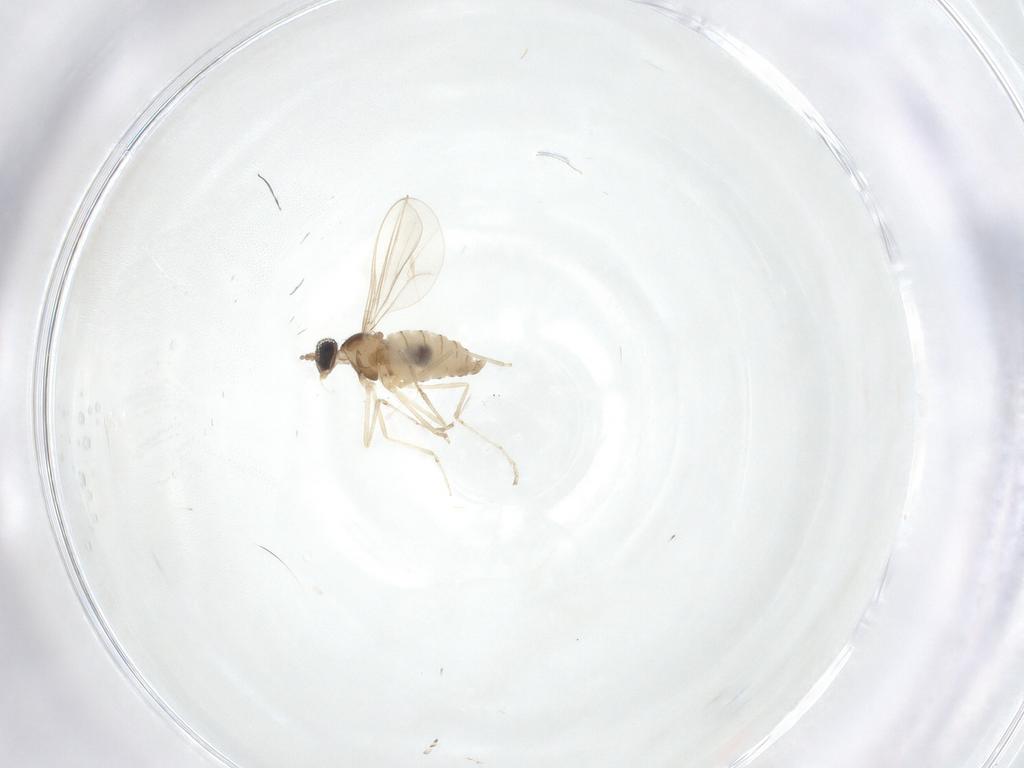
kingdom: Animalia
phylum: Arthropoda
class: Insecta
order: Diptera
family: Cecidomyiidae
